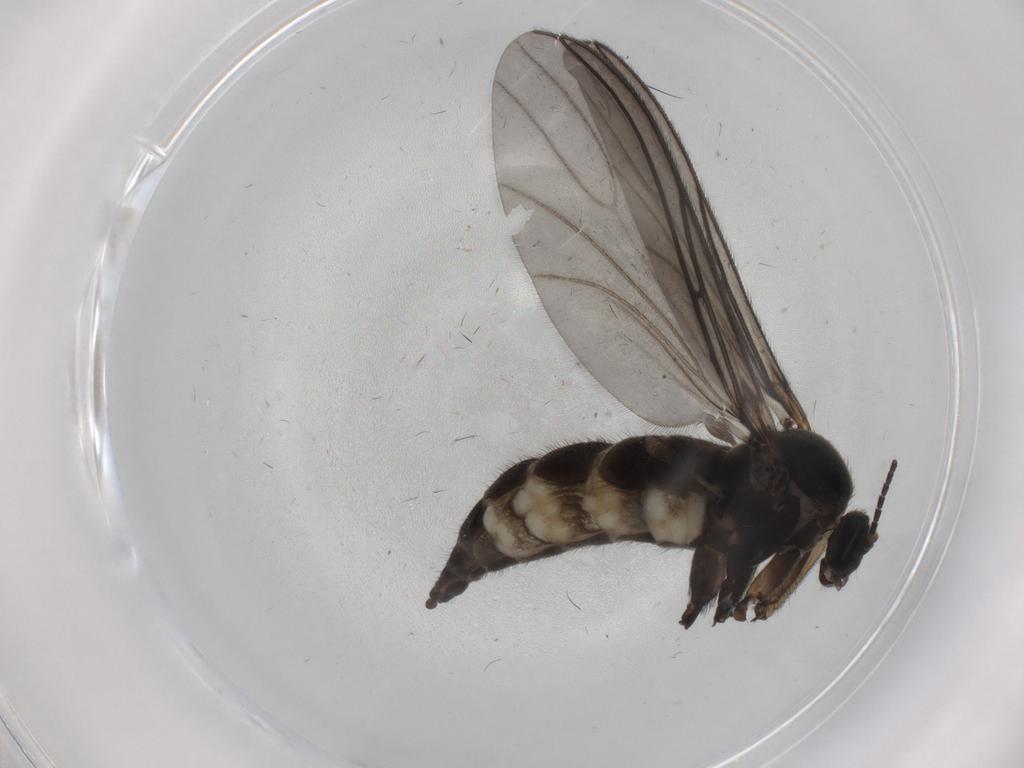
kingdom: Animalia
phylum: Arthropoda
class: Insecta
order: Diptera
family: Sciaridae
